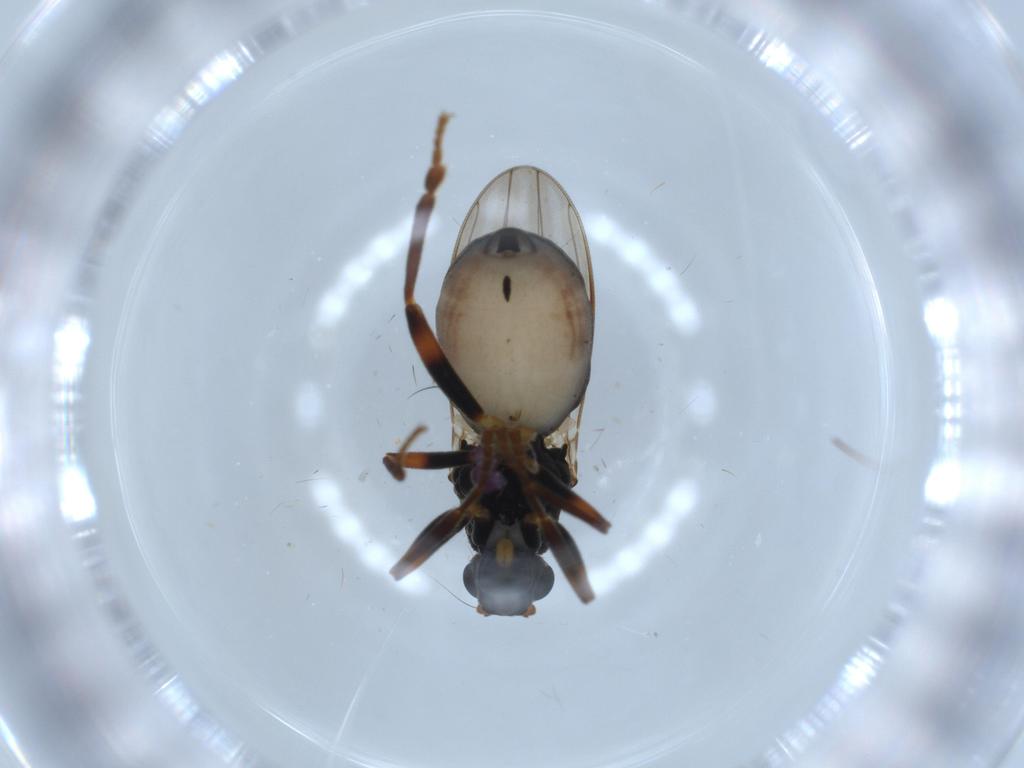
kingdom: Animalia
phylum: Arthropoda
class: Insecta
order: Diptera
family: Sphaeroceridae
